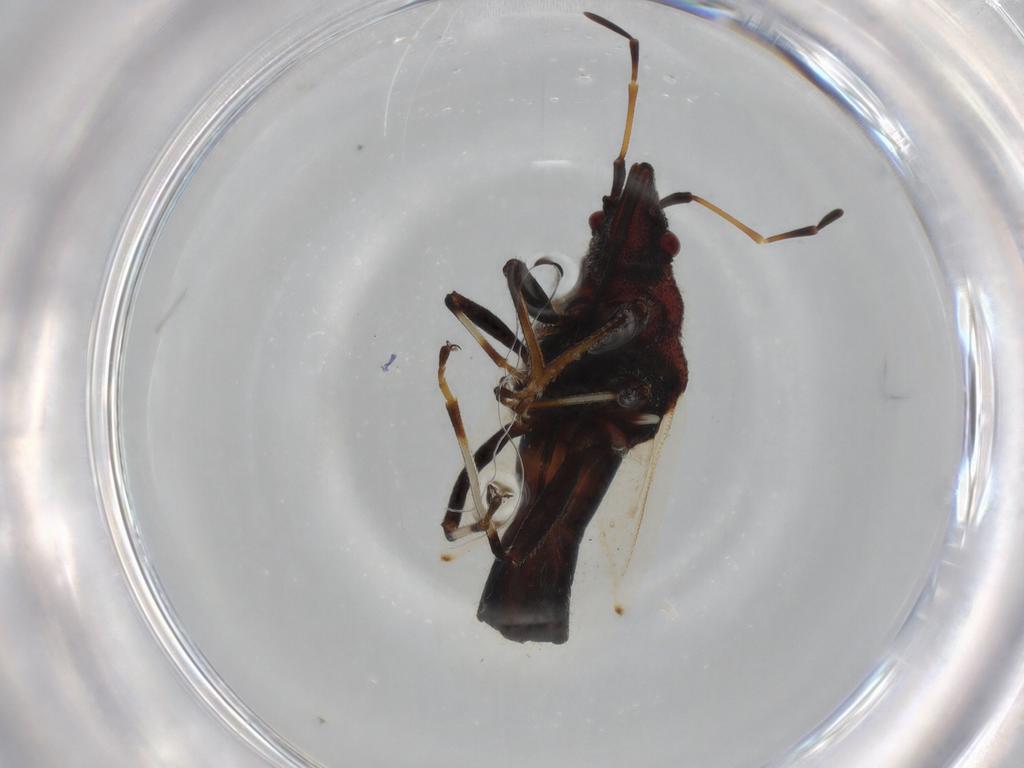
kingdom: Animalia
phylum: Arthropoda
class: Insecta
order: Hemiptera
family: Oxycarenidae
